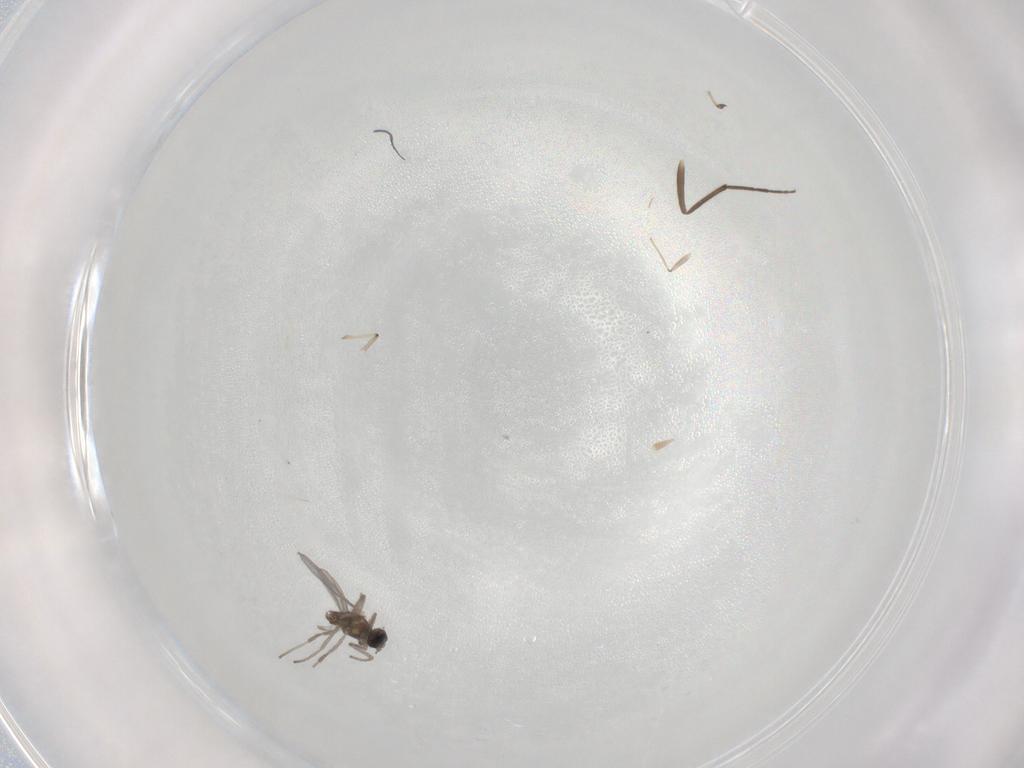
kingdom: Animalia
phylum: Arthropoda
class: Insecta
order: Diptera
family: Cecidomyiidae
